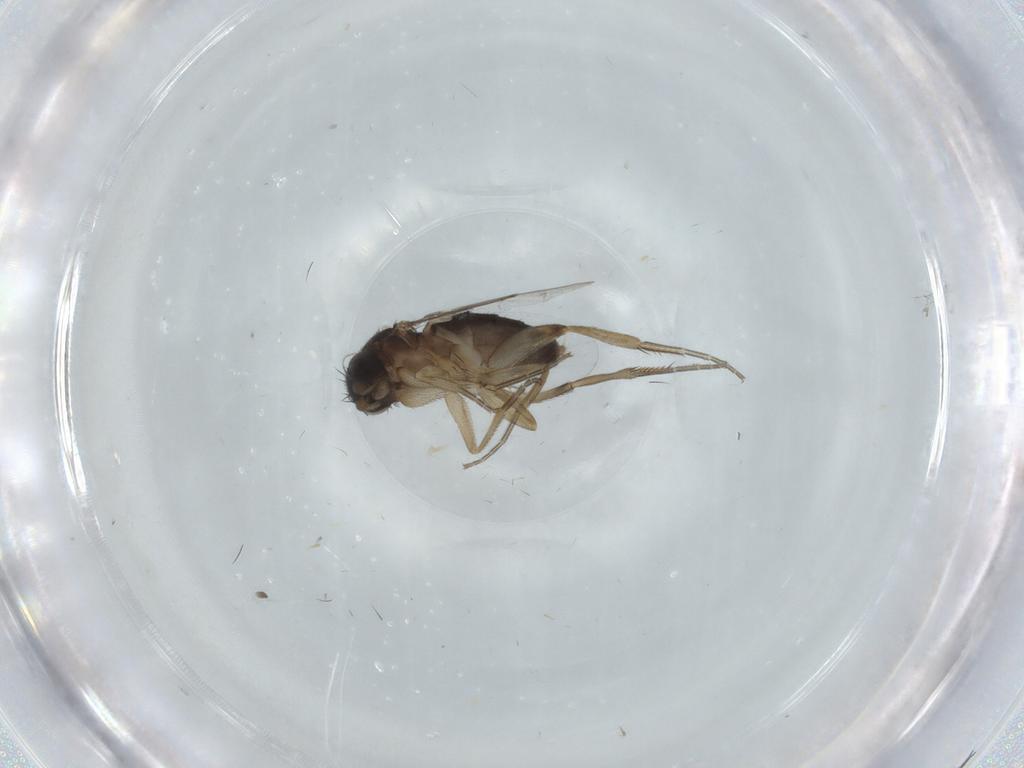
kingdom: Animalia
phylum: Arthropoda
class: Insecta
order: Diptera
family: Phoridae
